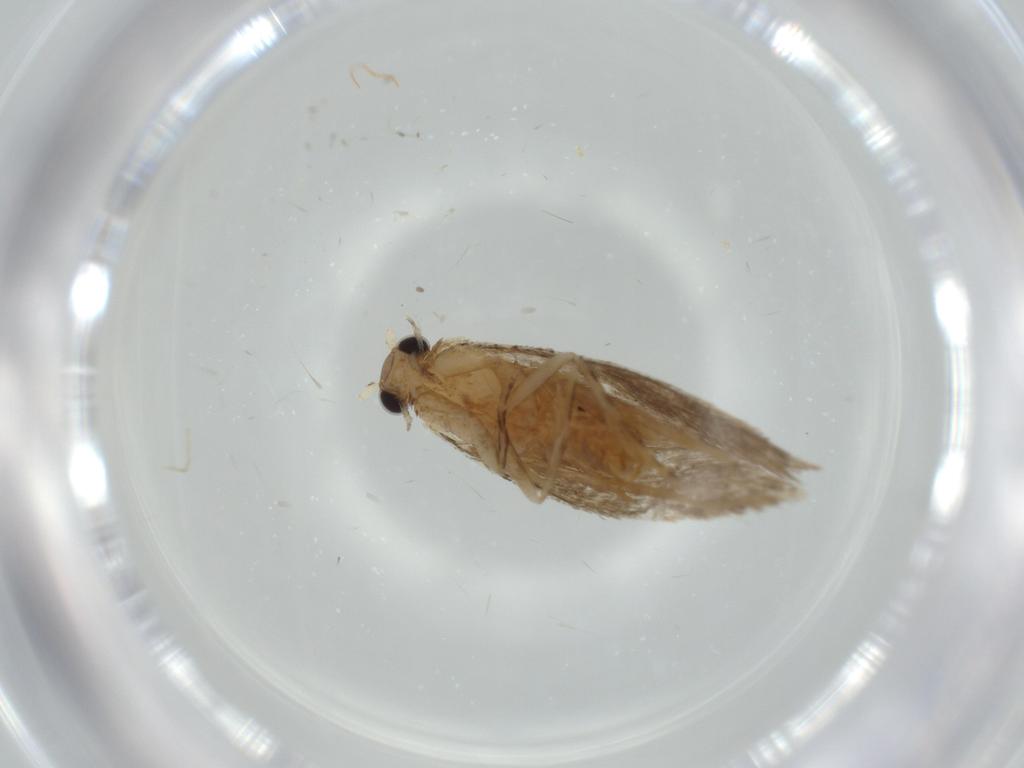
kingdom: Animalia
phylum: Arthropoda
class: Insecta
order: Lepidoptera
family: Tineidae
